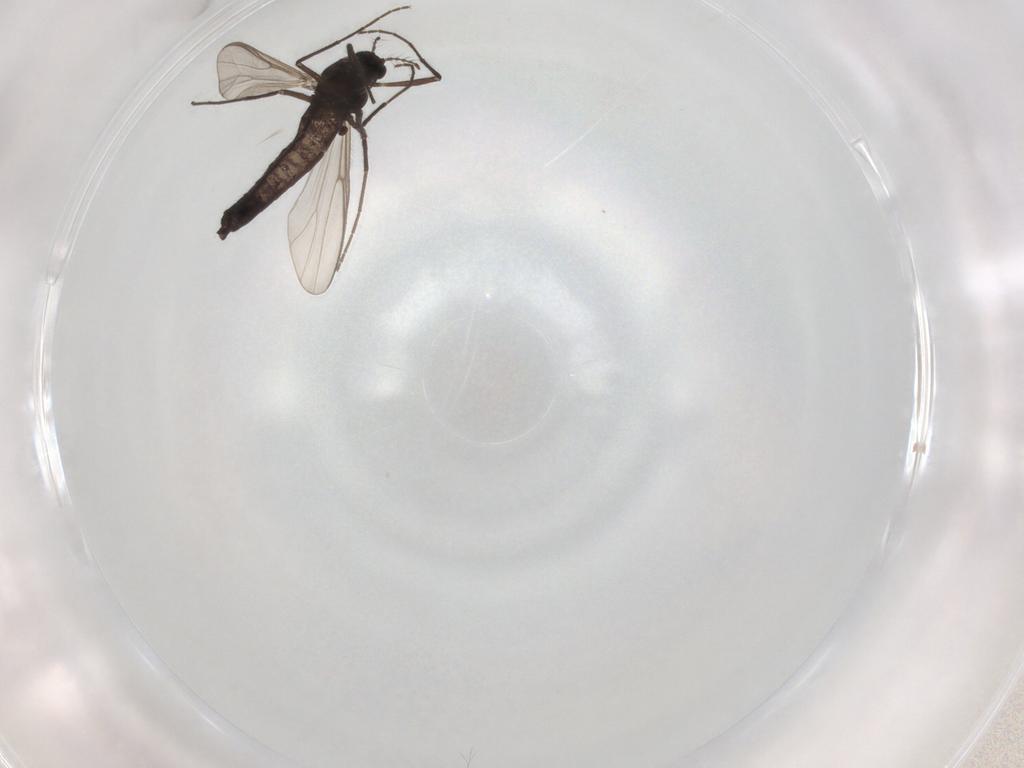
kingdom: Animalia
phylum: Arthropoda
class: Insecta
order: Diptera
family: Chironomidae
